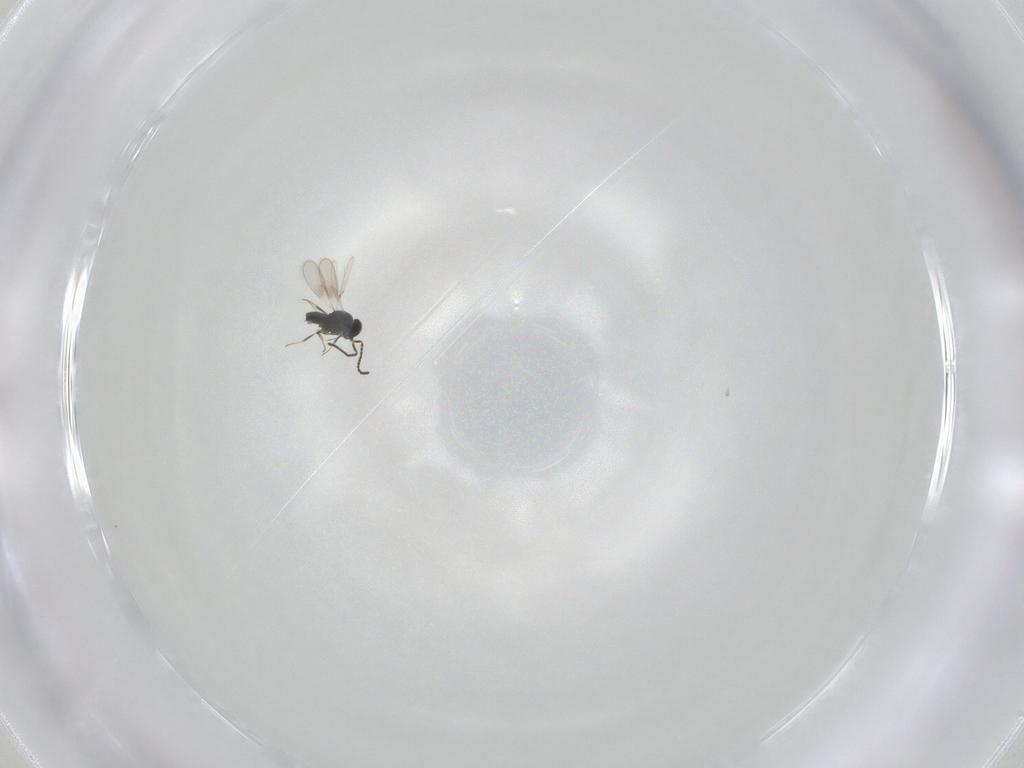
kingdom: Animalia
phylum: Arthropoda
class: Insecta
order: Hymenoptera
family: Scelionidae
